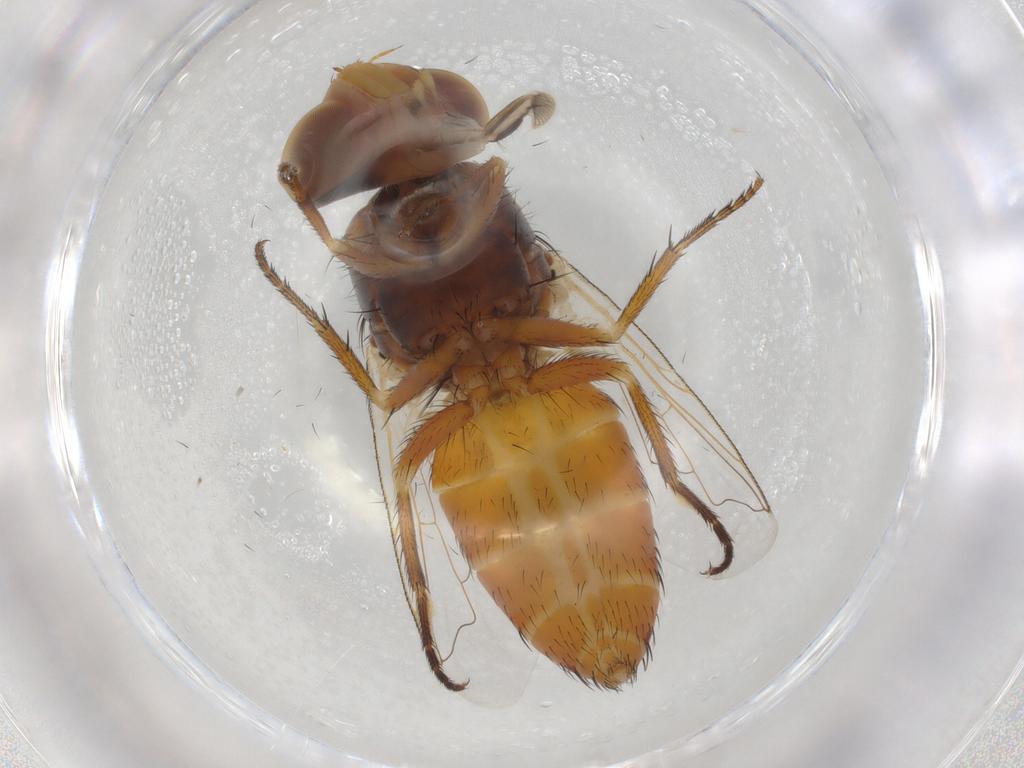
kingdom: Animalia
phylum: Arthropoda
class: Insecta
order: Diptera
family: Sarcophagidae
